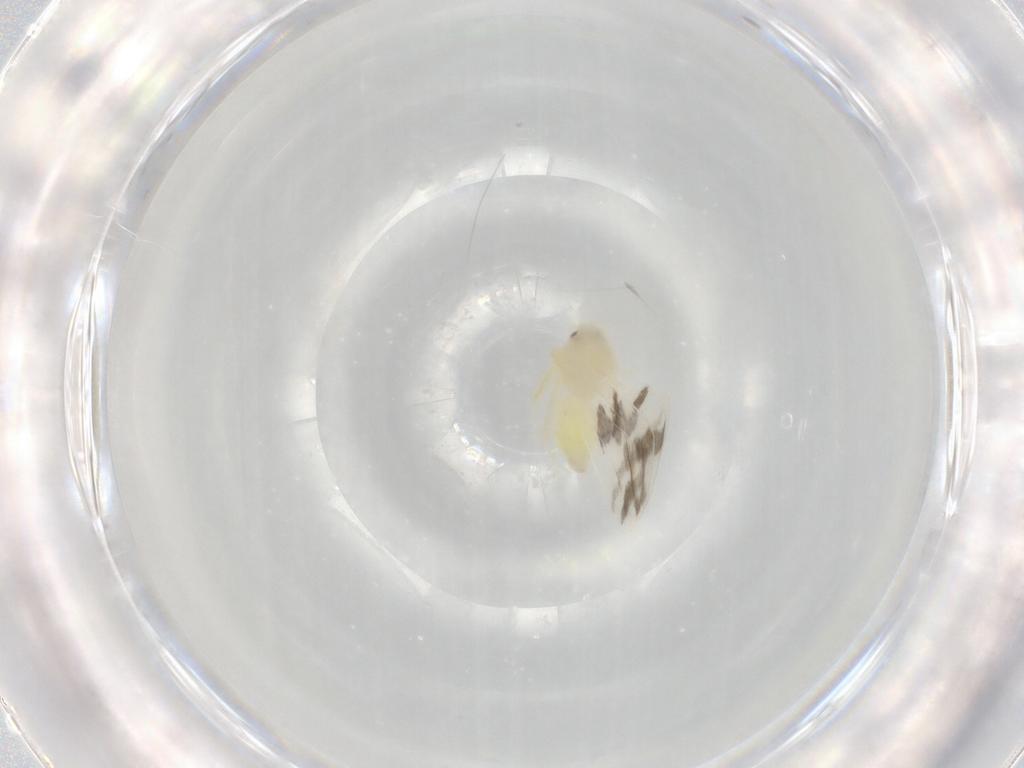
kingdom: Animalia
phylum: Arthropoda
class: Insecta
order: Hemiptera
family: Aleyrodidae
